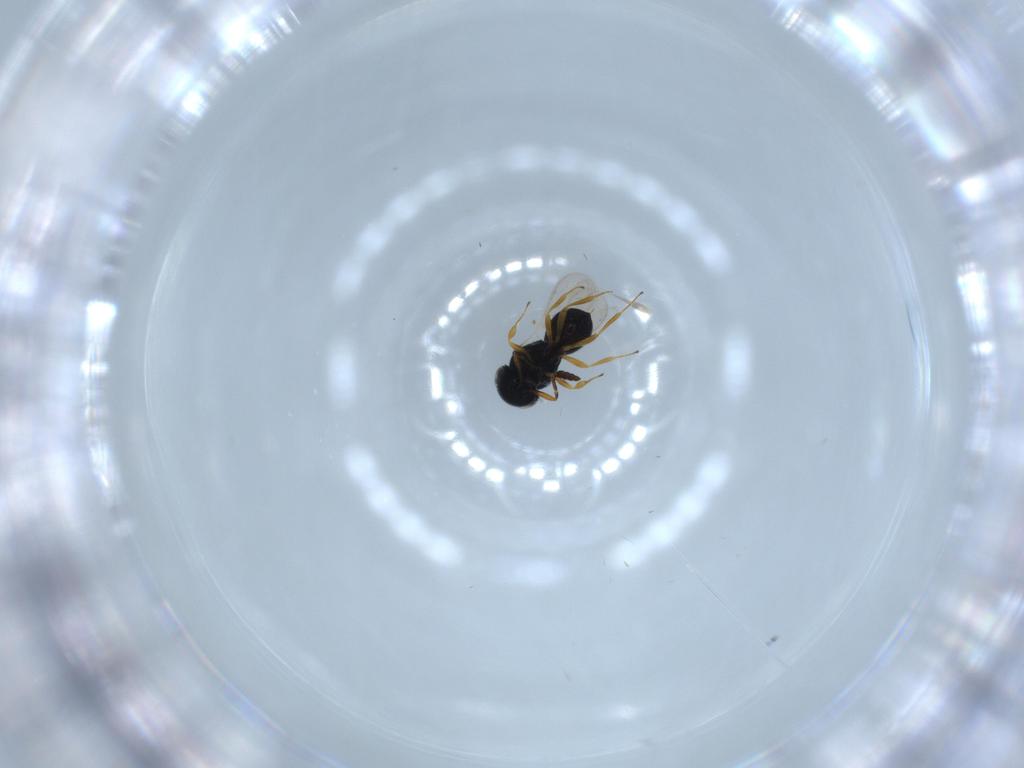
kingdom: Animalia
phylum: Arthropoda
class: Insecta
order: Hymenoptera
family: Scelionidae
